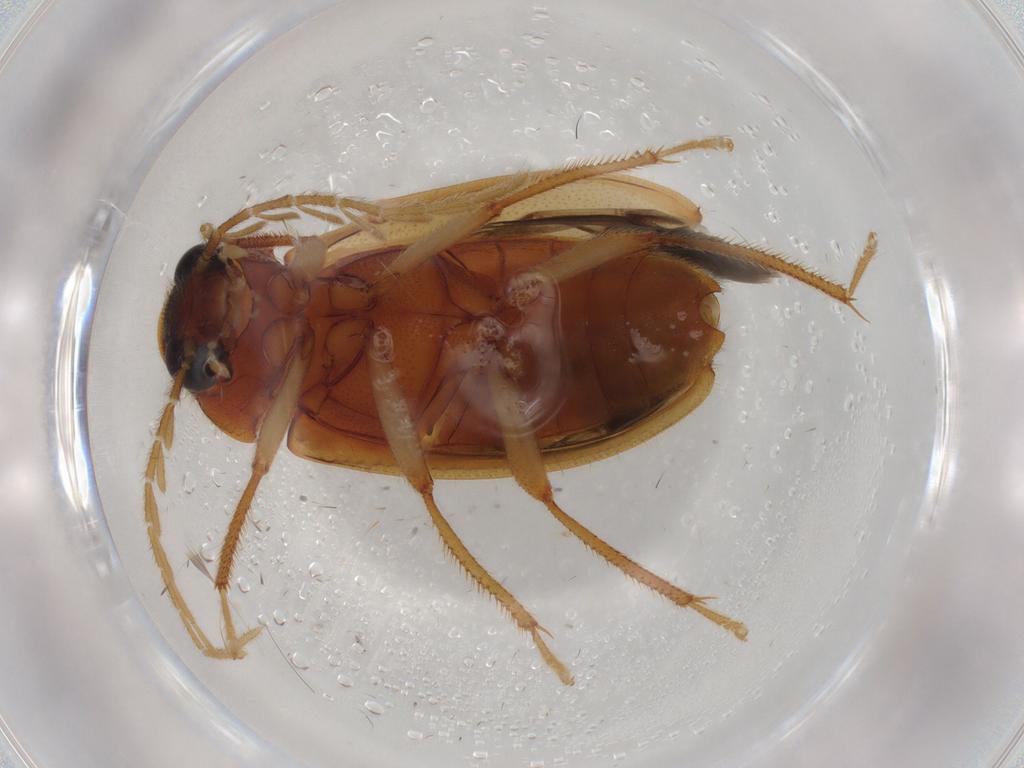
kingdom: Animalia
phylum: Arthropoda
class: Insecta
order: Coleoptera
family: Ptilodactylidae
